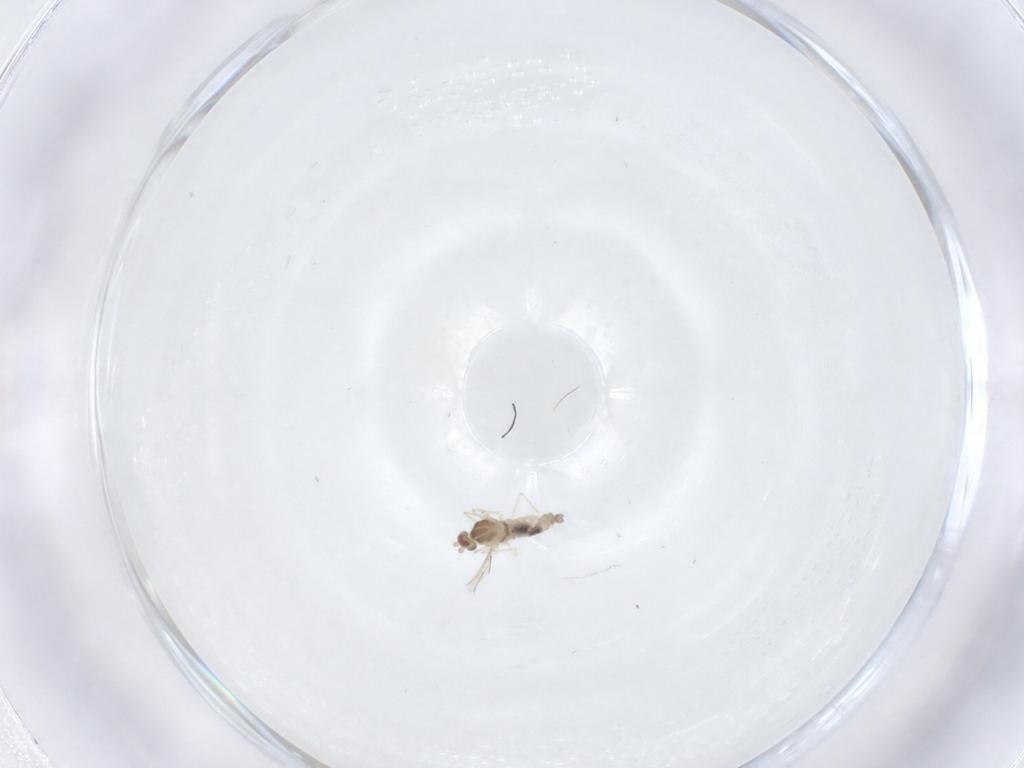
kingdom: Animalia
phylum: Arthropoda
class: Insecta
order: Diptera
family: Cecidomyiidae
